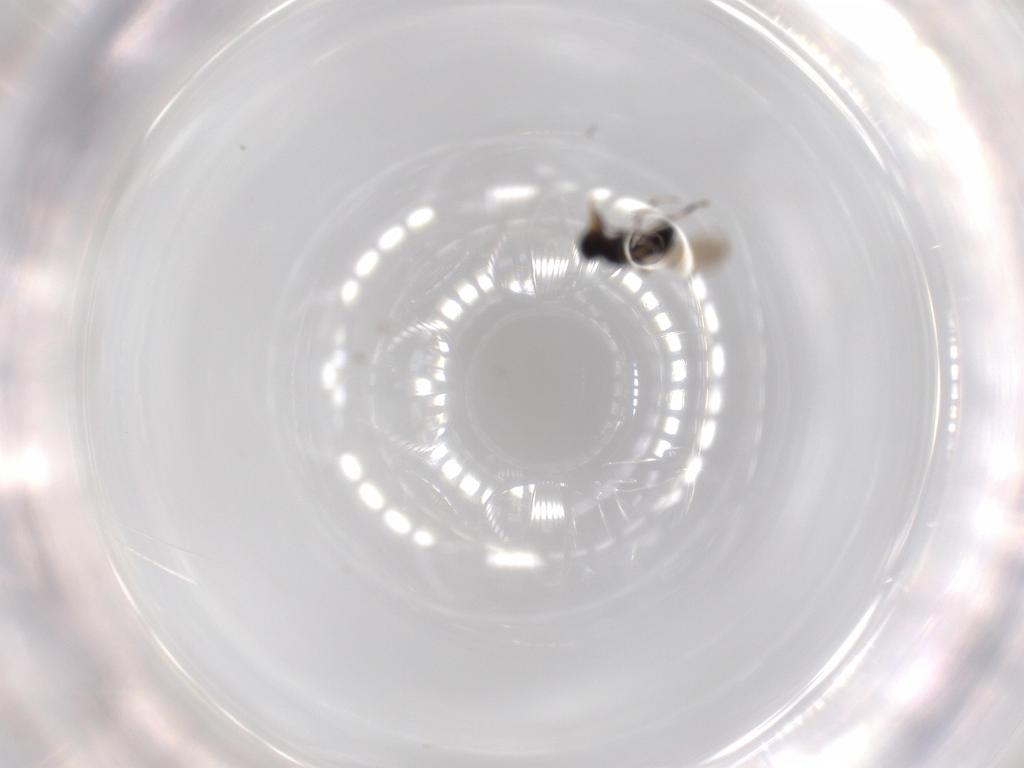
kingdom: Animalia
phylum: Arthropoda
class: Insecta
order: Hymenoptera
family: Formicidae
